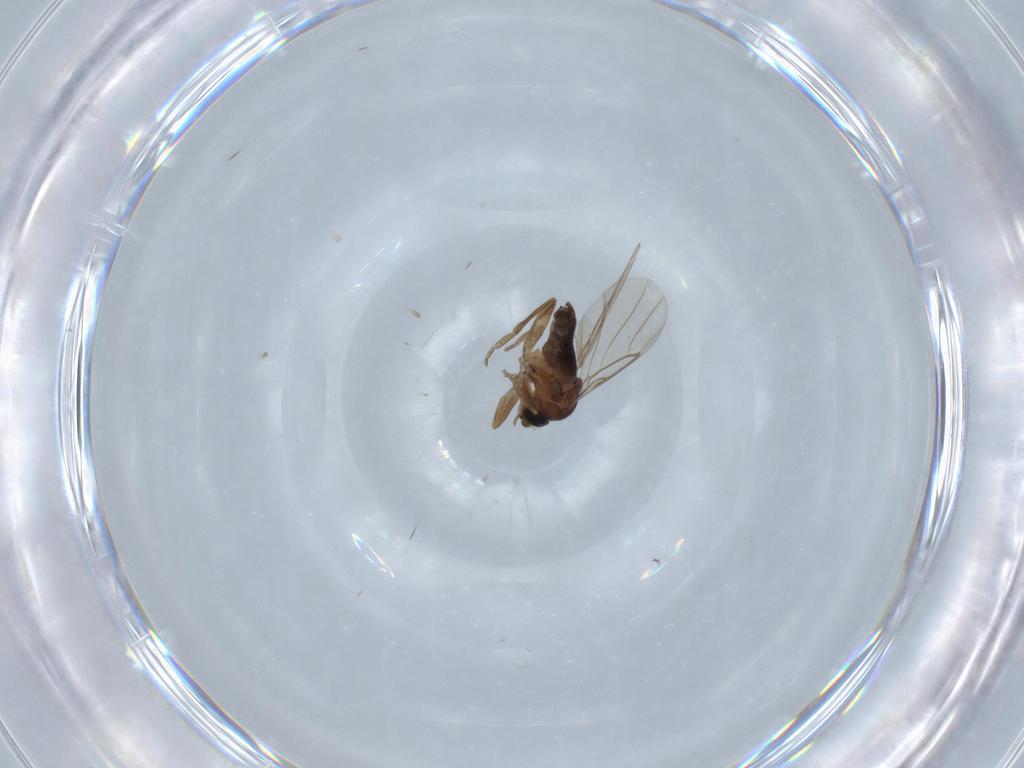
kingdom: Animalia
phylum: Arthropoda
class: Insecta
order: Diptera
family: Phoridae
